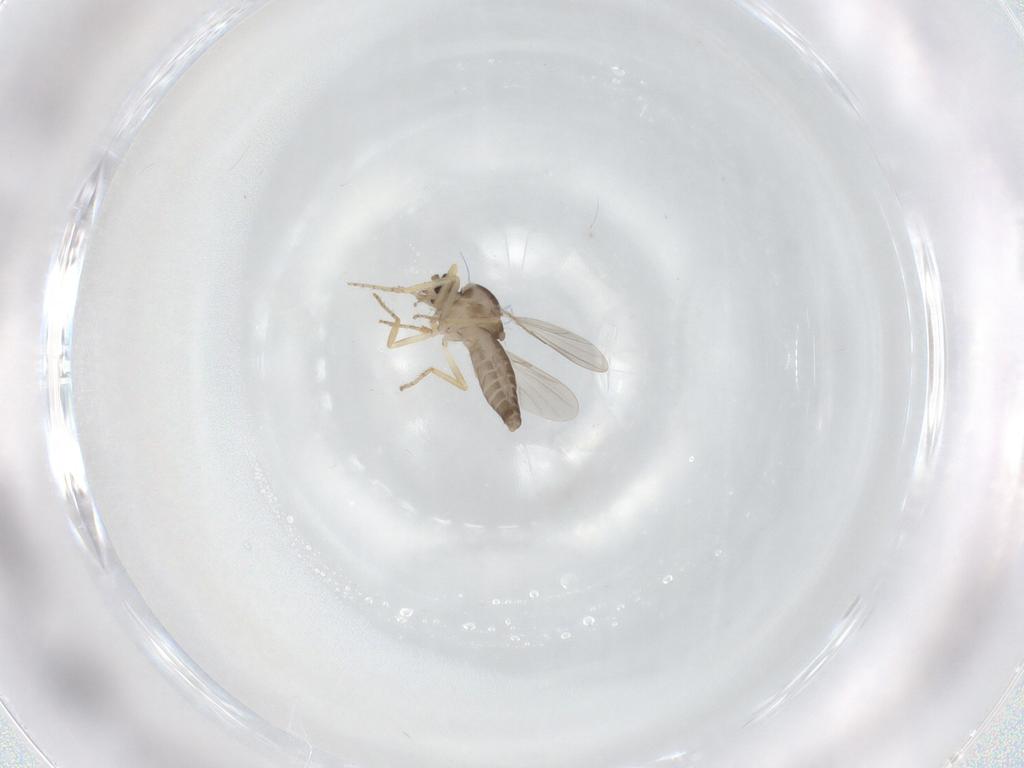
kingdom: Animalia
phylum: Arthropoda
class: Insecta
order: Diptera
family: Ceratopogonidae
